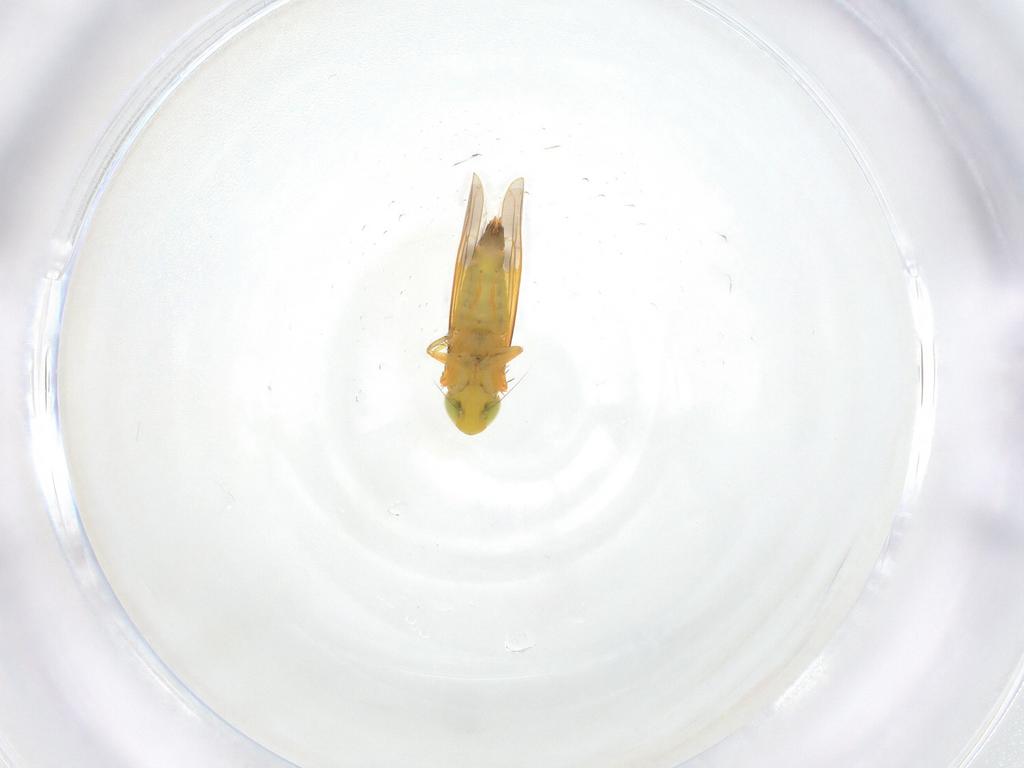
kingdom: Animalia
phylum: Arthropoda
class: Insecta
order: Hemiptera
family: Cicadellidae
